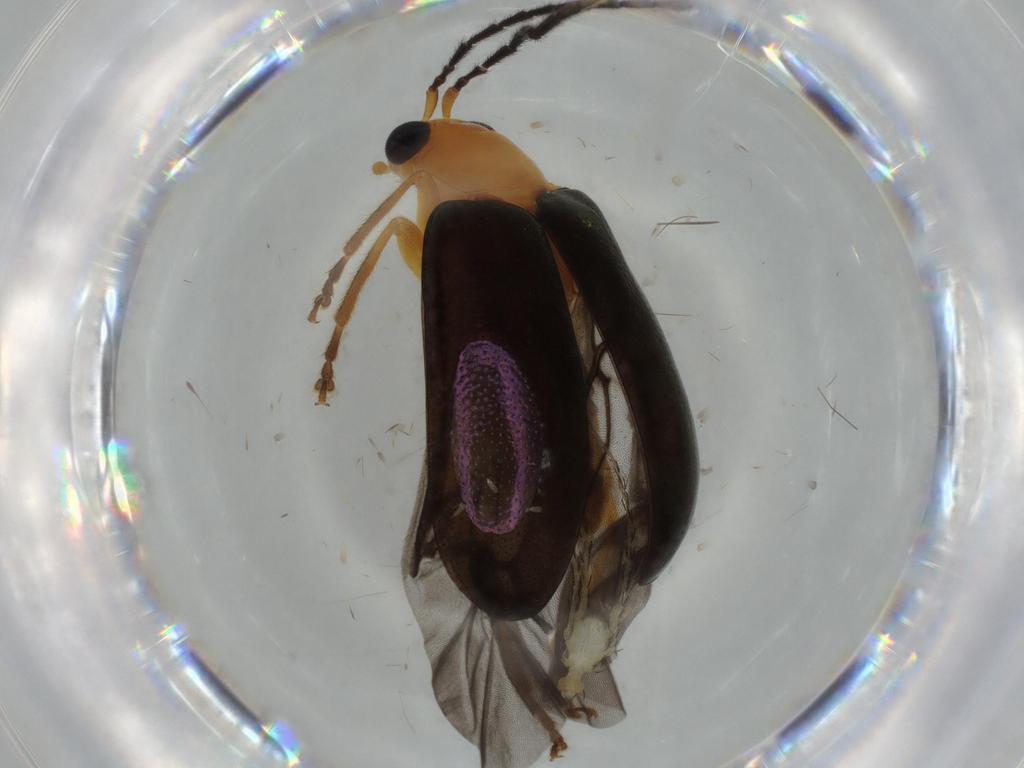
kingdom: Animalia
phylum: Arthropoda
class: Insecta
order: Coleoptera
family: Chrysomelidae
